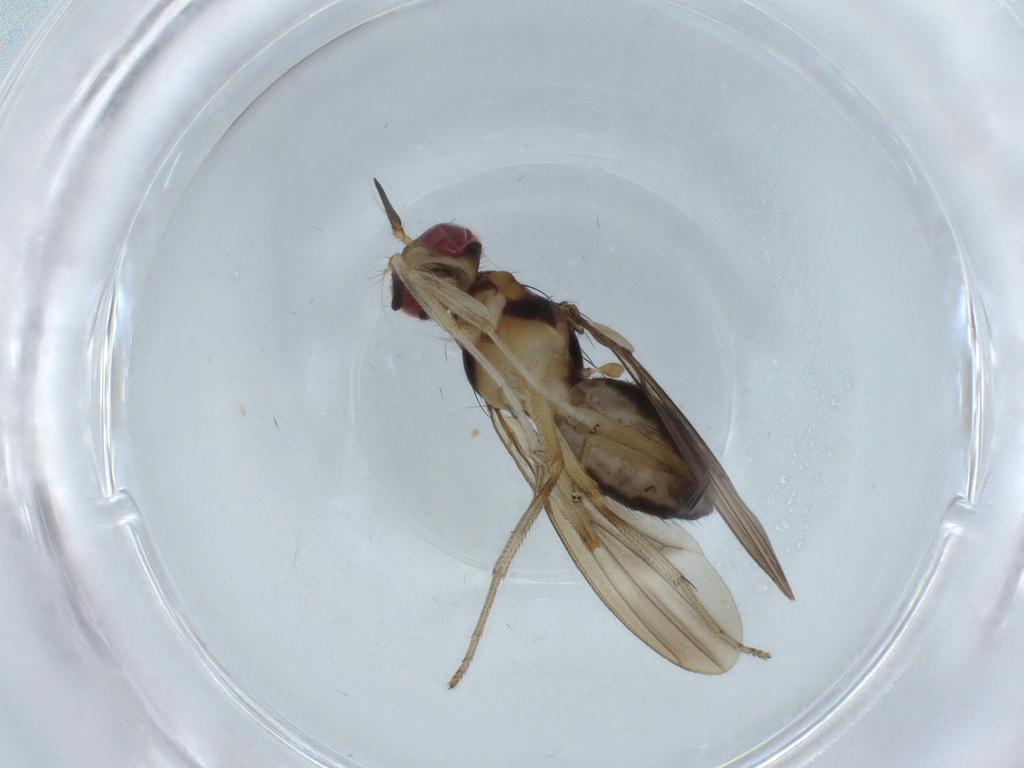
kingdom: Animalia
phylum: Arthropoda
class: Insecta
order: Diptera
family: Lauxaniidae
